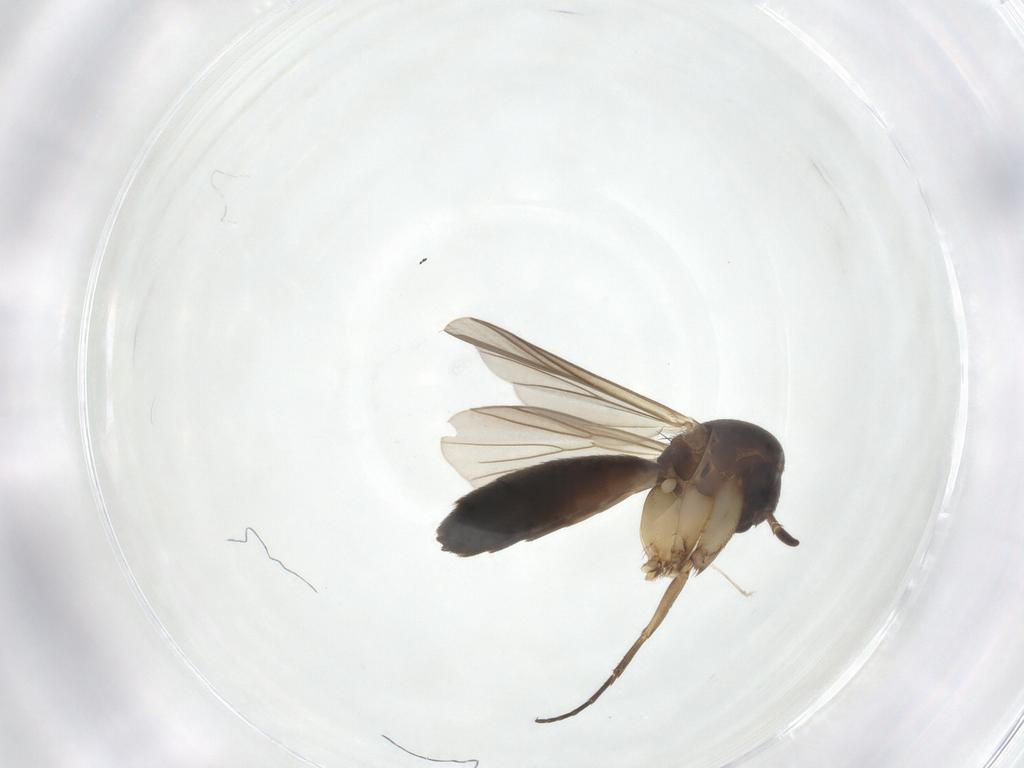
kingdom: Animalia
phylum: Arthropoda
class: Insecta
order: Diptera
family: Mycetophilidae
